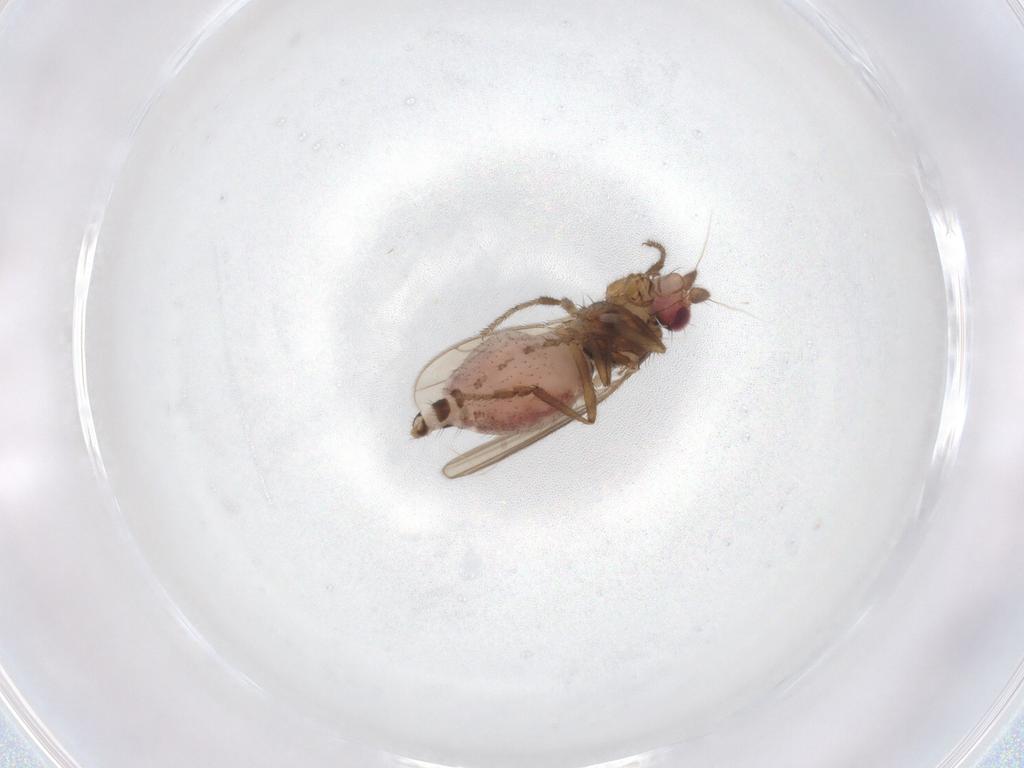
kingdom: Animalia
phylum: Arthropoda
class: Insecta
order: Diptera
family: Sphaeroceridae
